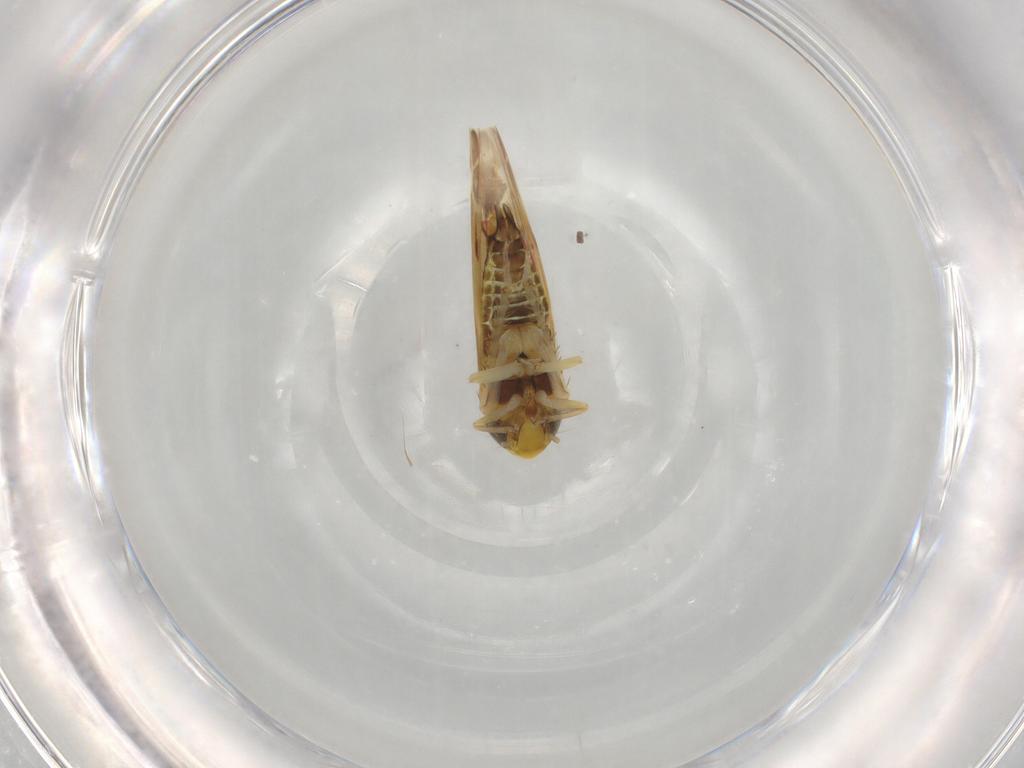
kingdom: Animalia
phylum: Arthropoda
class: Insecta
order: Hemiptera
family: Cicadellidae
